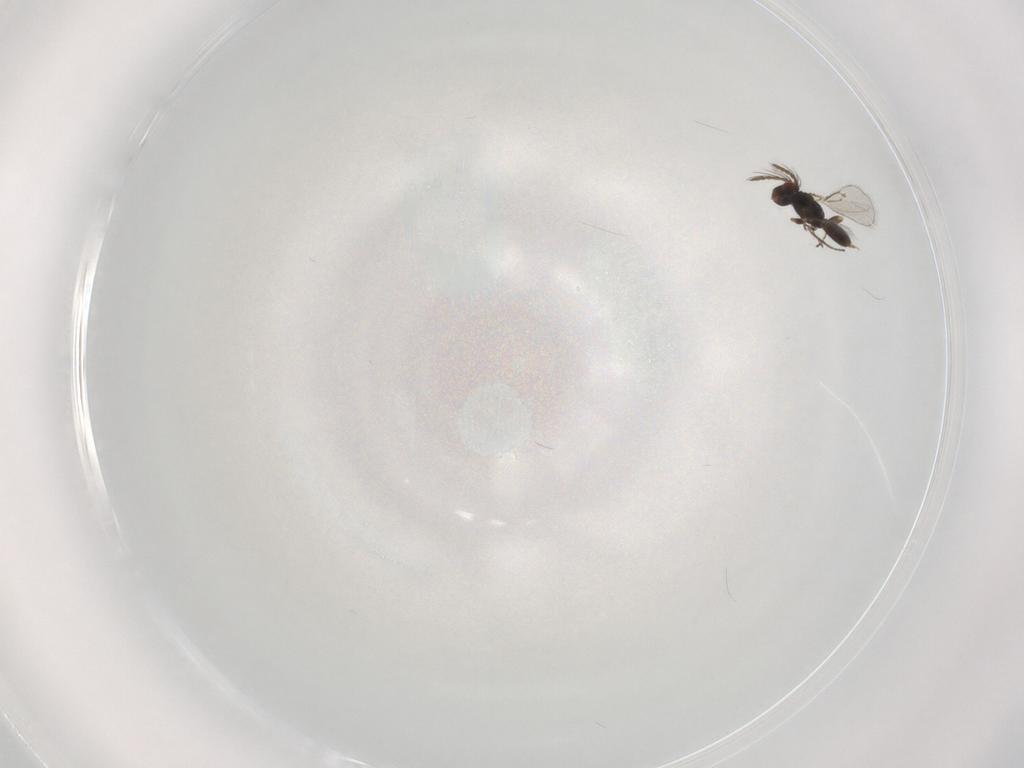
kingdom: Animalia
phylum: Arthropoda
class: Insecta
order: Hymenoptera
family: Eulophidae
